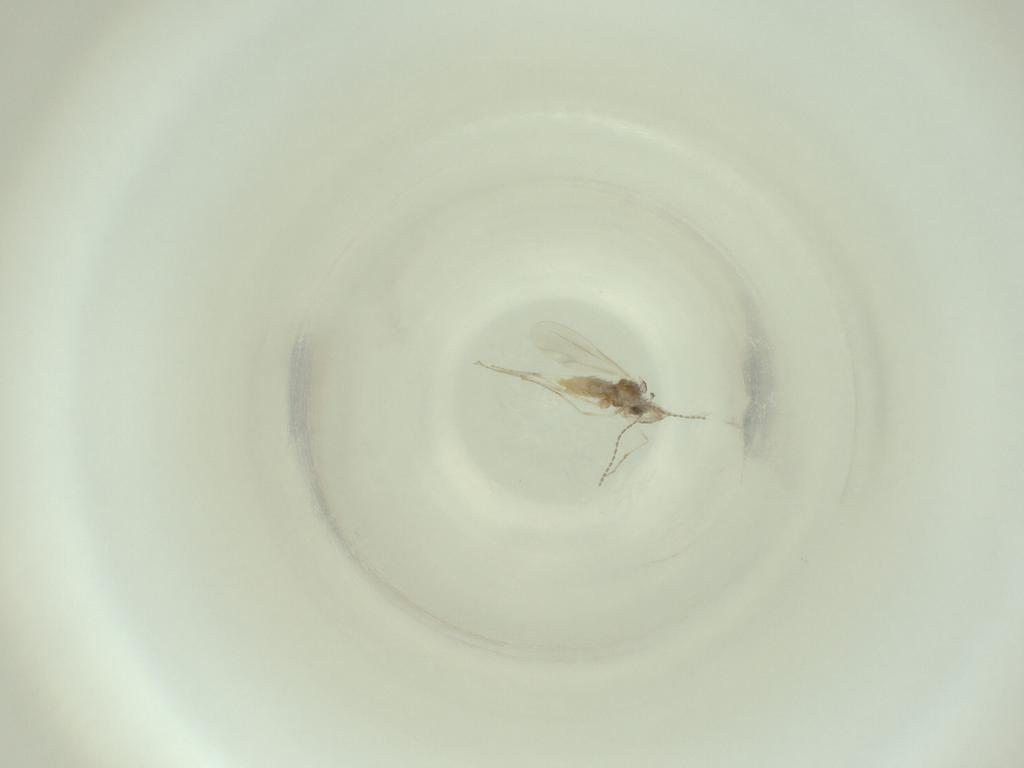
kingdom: Animalia
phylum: Arthropoda
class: Insecta
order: Diptera
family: Cecidomyiidae
